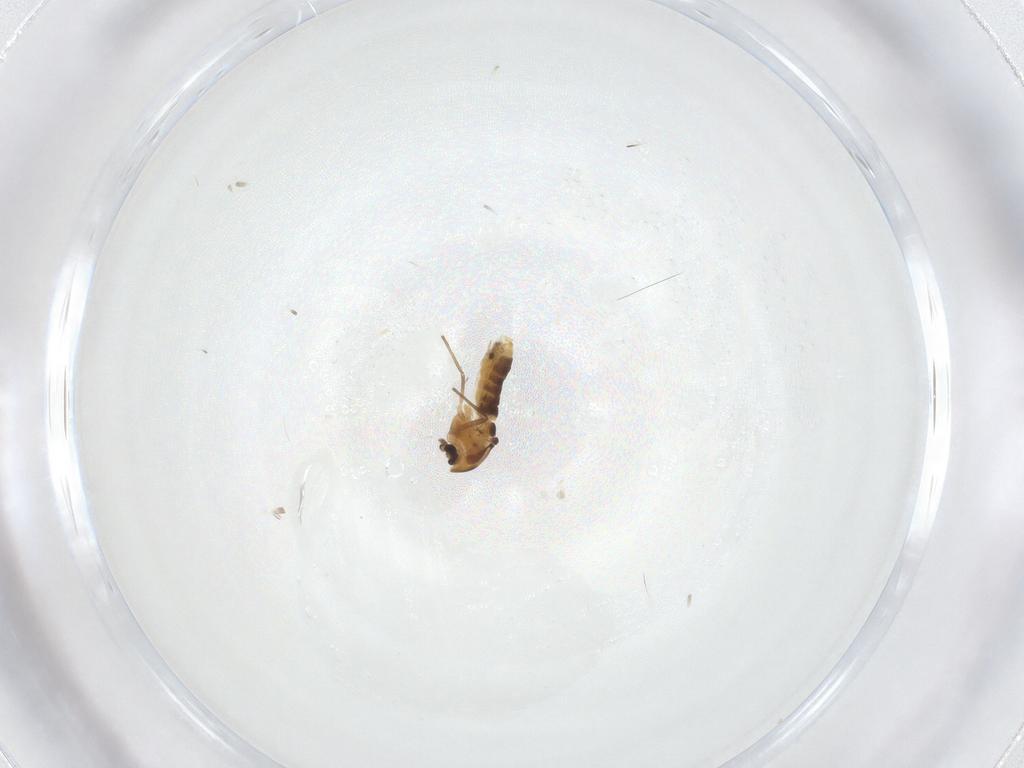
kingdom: Animalia
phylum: Arthropoda
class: Insecta
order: Diptera
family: Chironomidae
